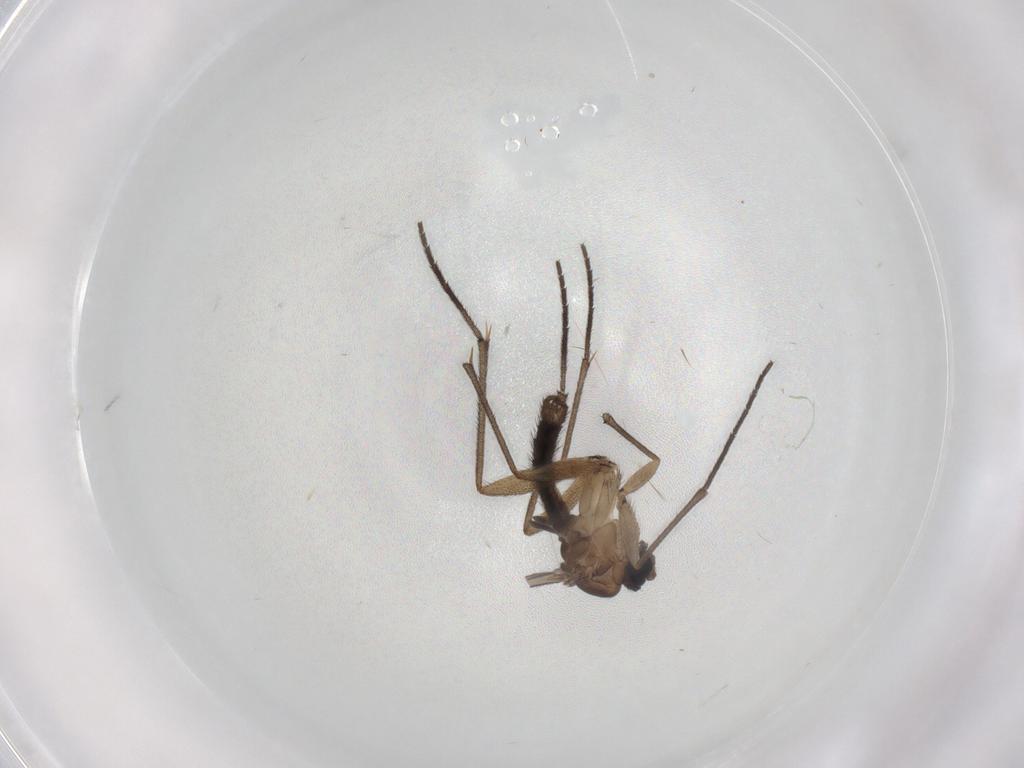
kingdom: Animalia
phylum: Arthropoda
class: Insecta
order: Diptera
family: Sciaridae
